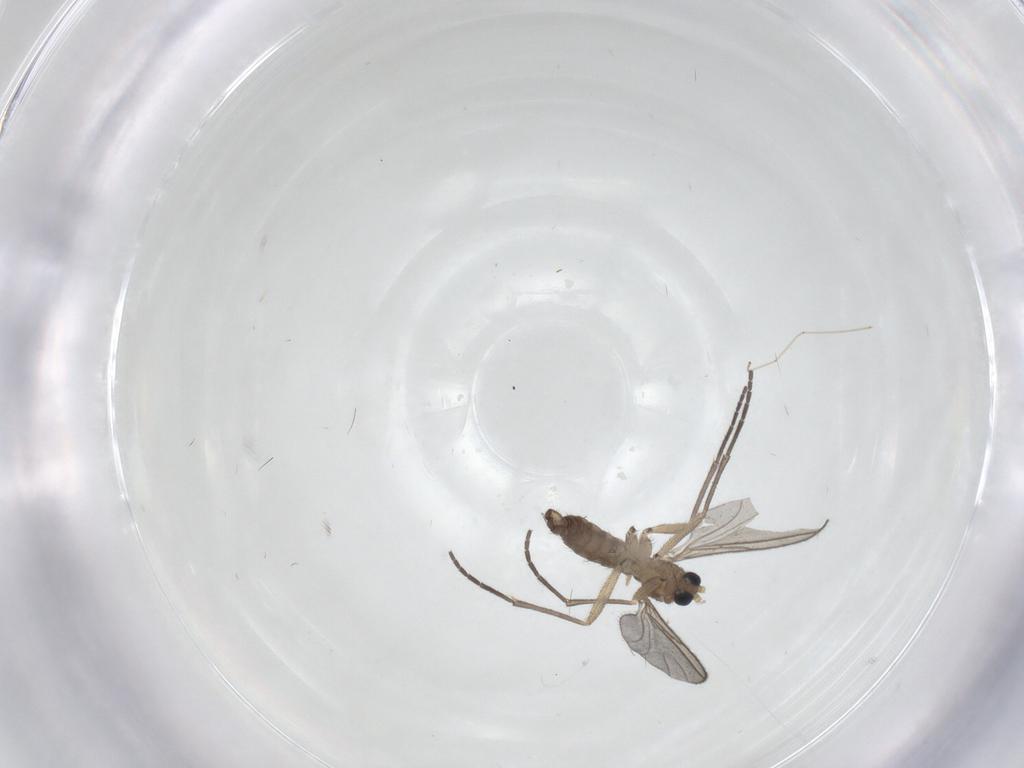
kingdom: Animalia
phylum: Arthropoda
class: Insecta
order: Diptera
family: Sciaridae
